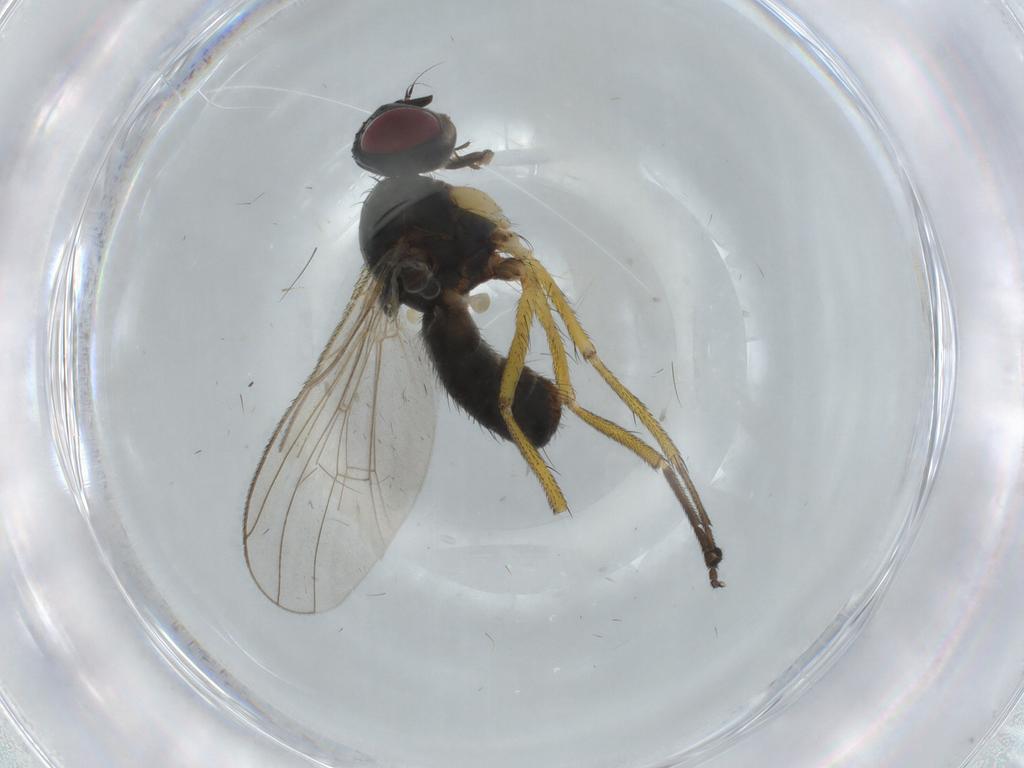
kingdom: Animalia
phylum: Arthropoda
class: Insecta
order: Diptera
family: Muscidae
